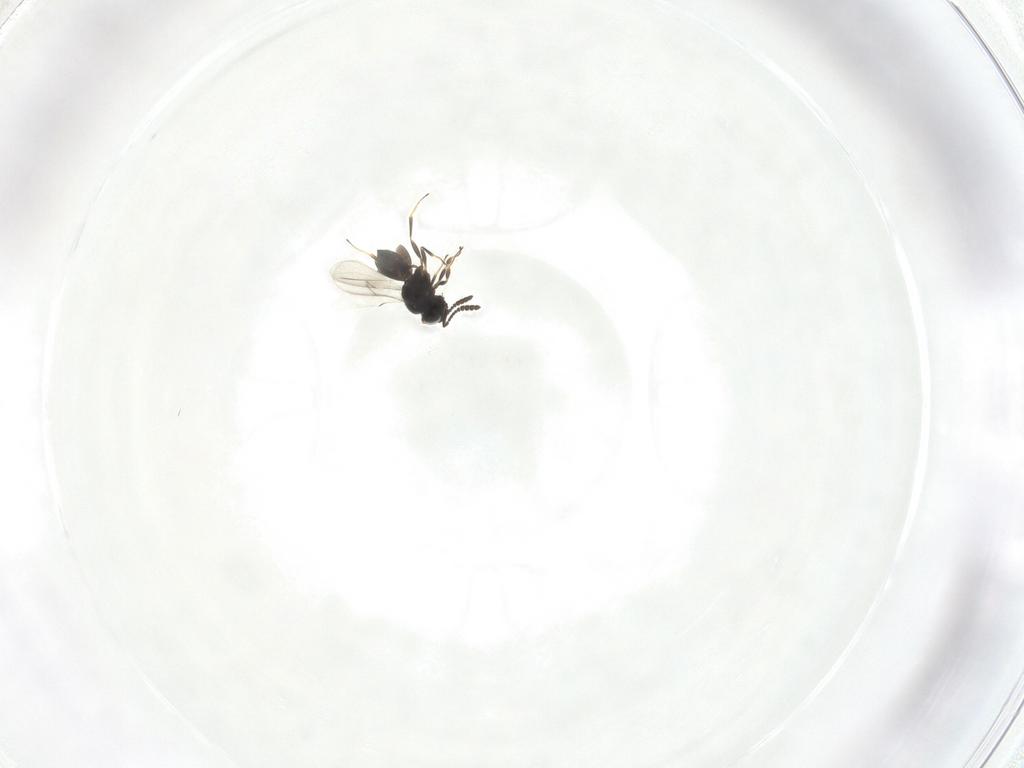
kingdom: Animalia
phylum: Arthropoda
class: Insecta
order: Hymenoptera
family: Scelionidae
